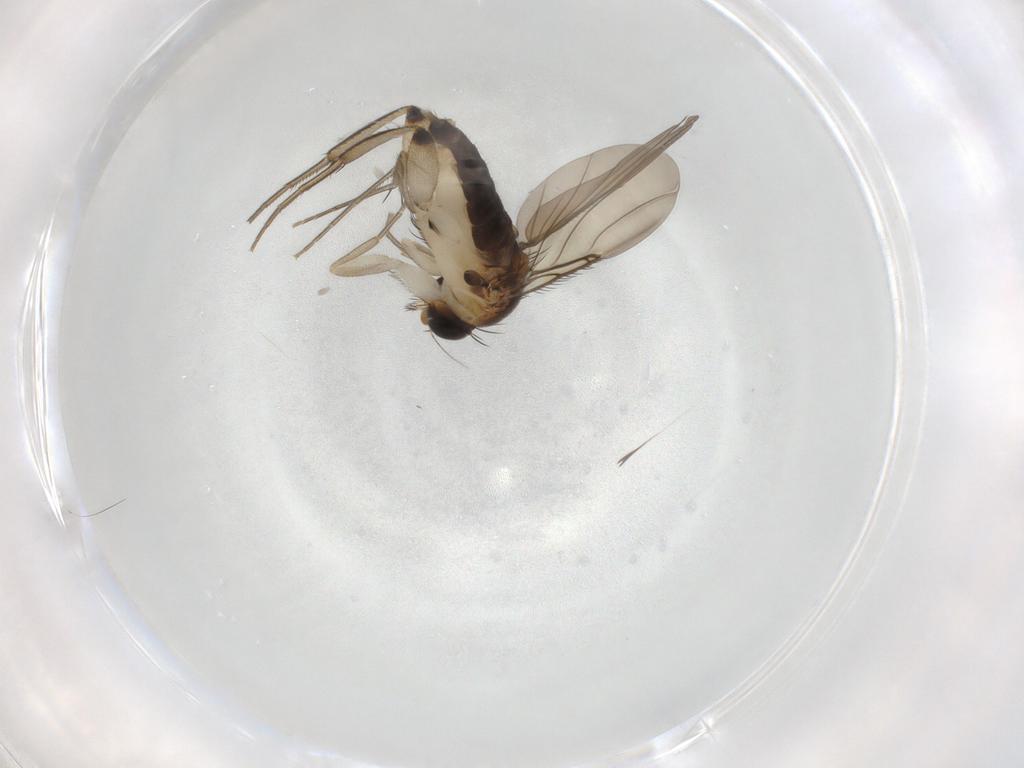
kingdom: Animalia
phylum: Arthropoda
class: Insecta
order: Diptera
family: Phoridae
